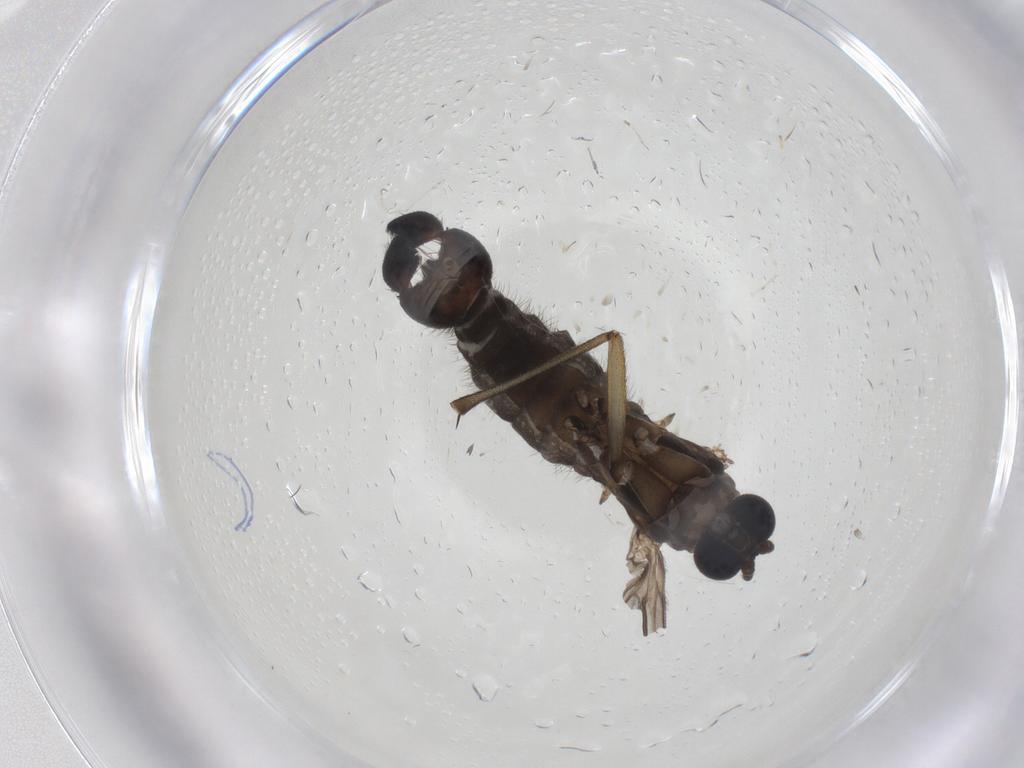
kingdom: Animalia
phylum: Arthropoda
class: Insecta
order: Diptera
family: Sciaridae
